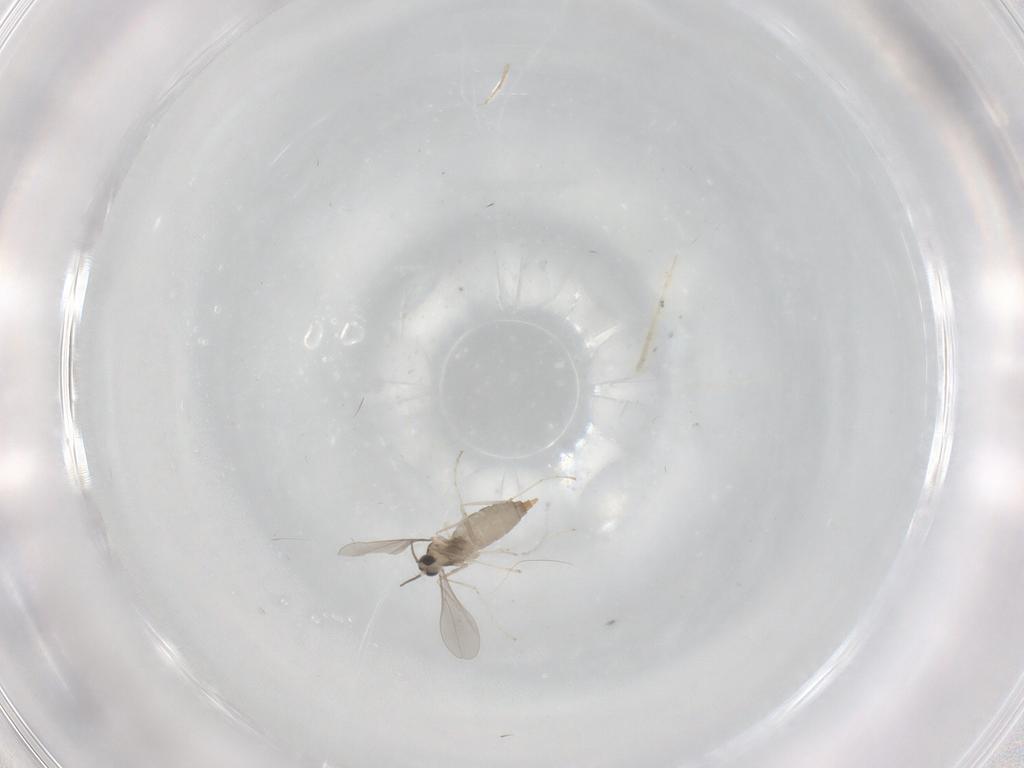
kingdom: Animalia
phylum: Arthropoda
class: Insecta
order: Diptera
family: Cecidomyiidae
